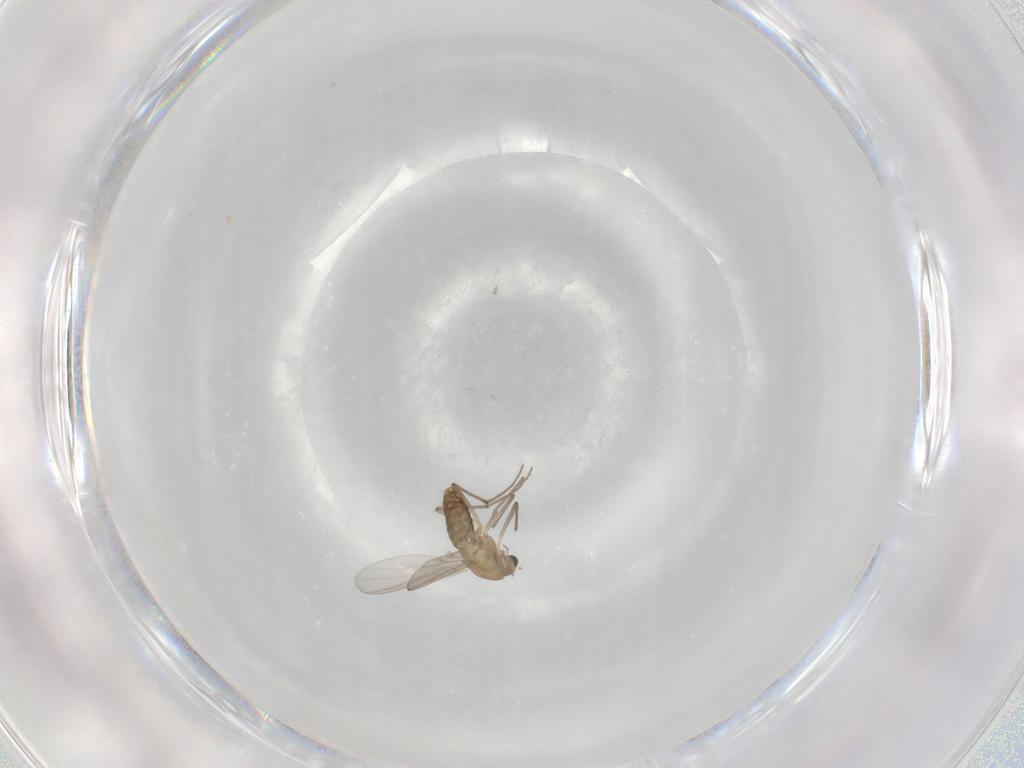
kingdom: Animalia
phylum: Arthropoda
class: Insecta
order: Diptera
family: Chironomidae
